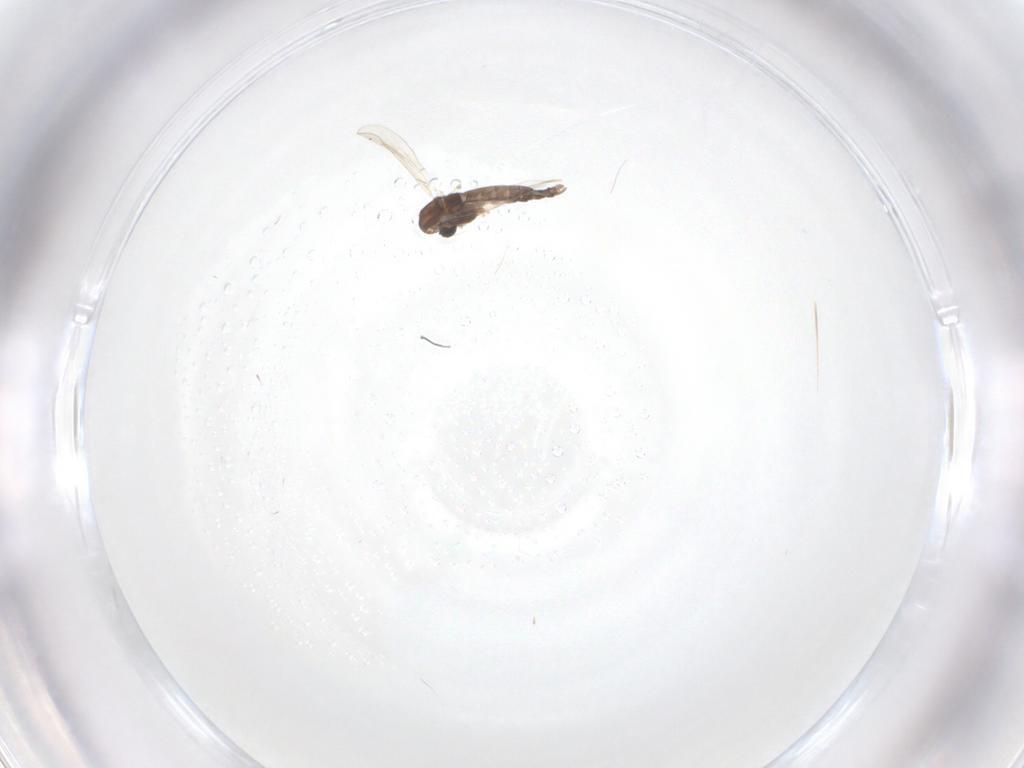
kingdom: Animalia
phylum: Arthropoda
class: Insecta
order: Diptera
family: Chironomidae
